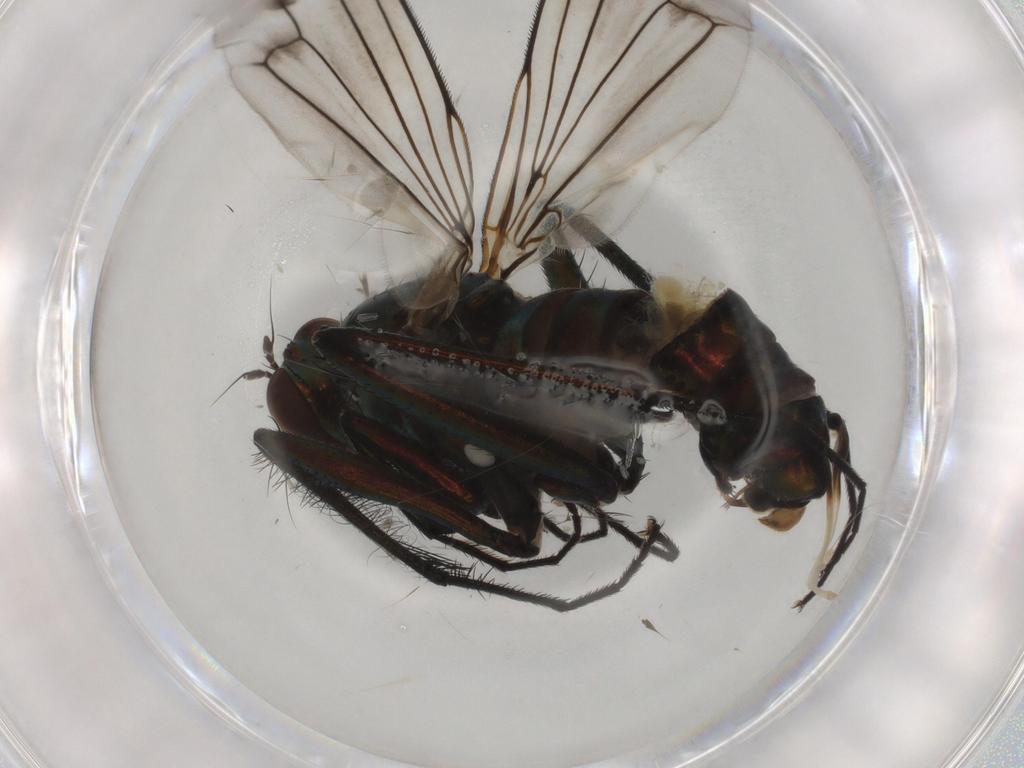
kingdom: Animalia
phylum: Arthropoda
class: Insecta
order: Diptera
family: Dolichopodidae
